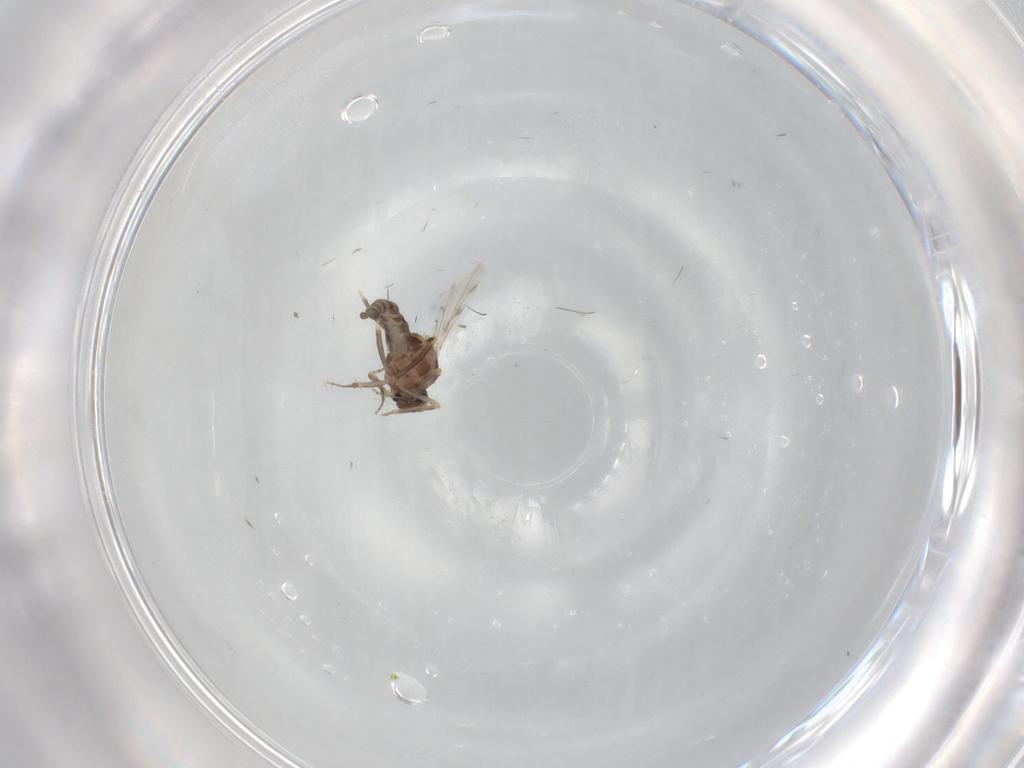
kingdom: Animalia
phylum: Arthropoda
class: Insecta
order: Diptera
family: Ceratopogonidae
